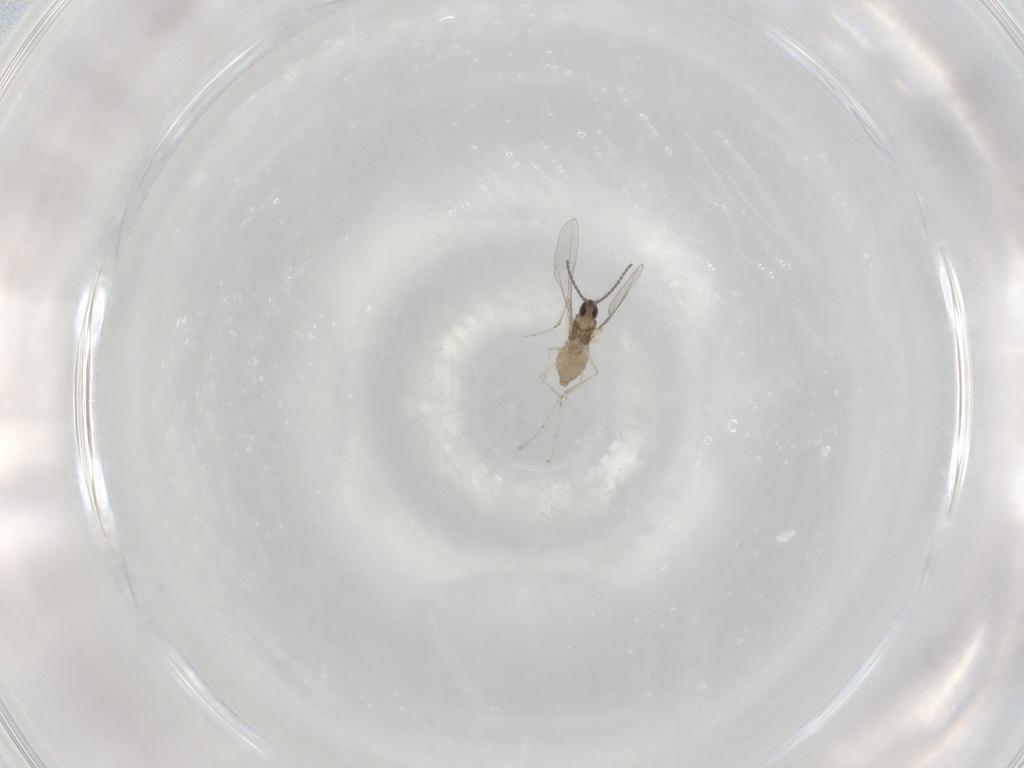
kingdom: Animalia
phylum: Arthropoda
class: Insecta
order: Diptera
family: Cecidomyiidae
